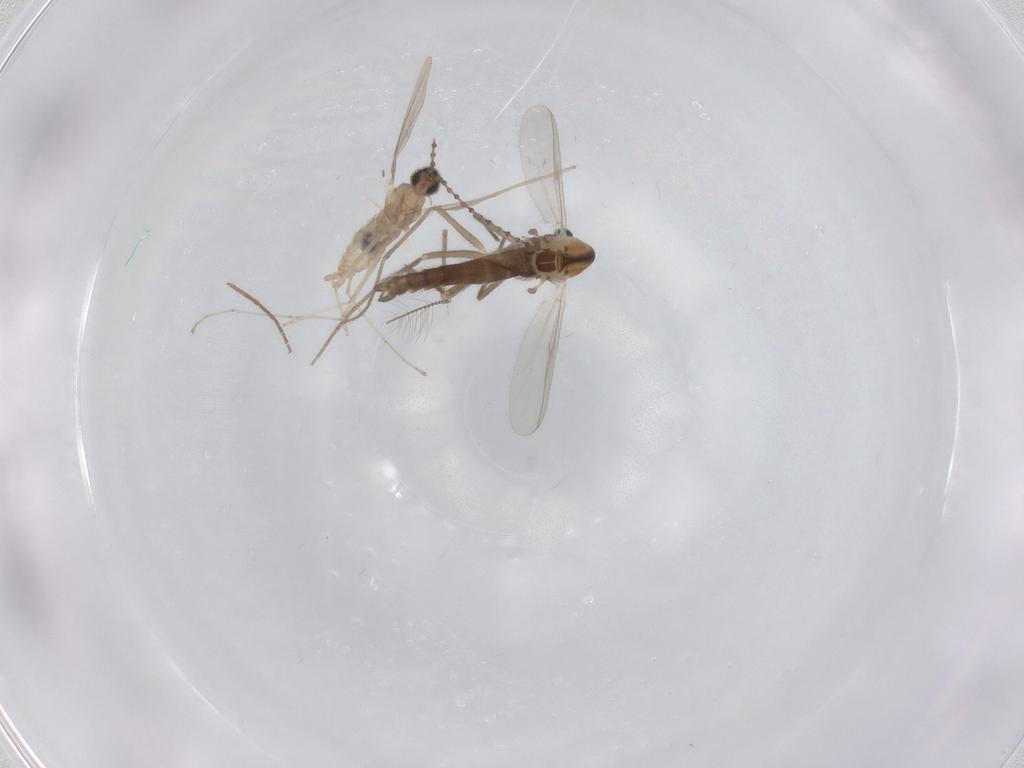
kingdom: Animalia
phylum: Arthropoda
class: Insecta
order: Diptera
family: Chironomidae
